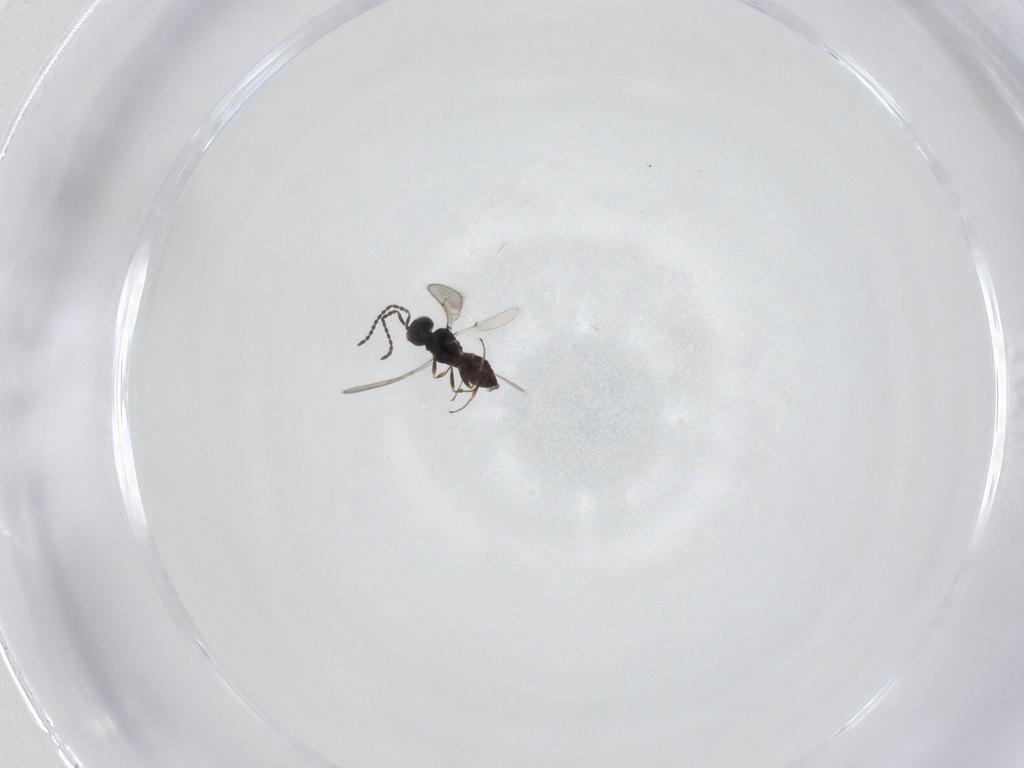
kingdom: Animalia
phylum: Arthropoda
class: Insecta
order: Hymenoptera
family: Scelionidae
